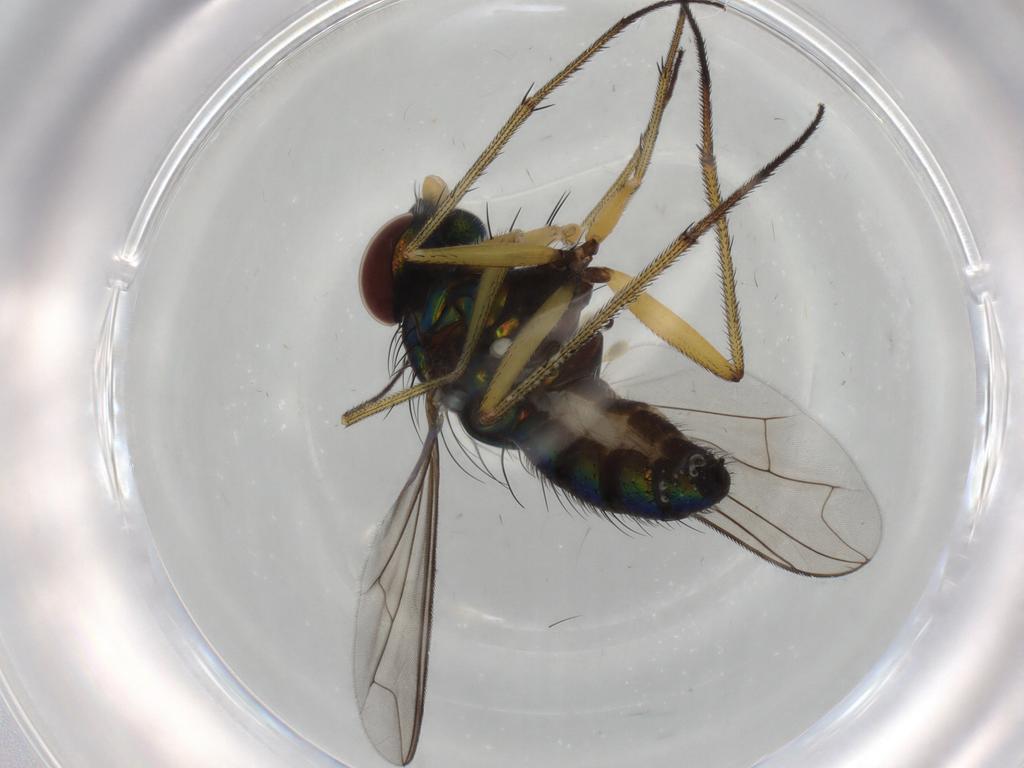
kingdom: Animalia
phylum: Arthropoda
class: Insecta
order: Diptera
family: Dolichopodidae
